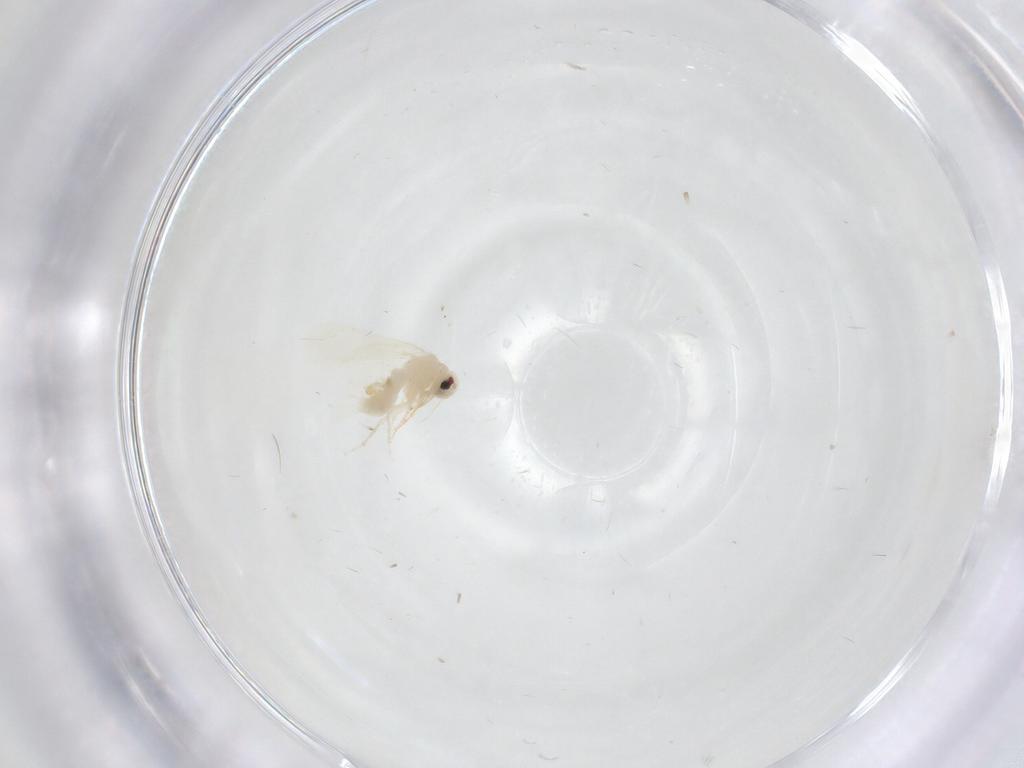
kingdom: Animalia
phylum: Arthropoda
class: Insecta
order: Hemiptera
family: Aleyrodidae
